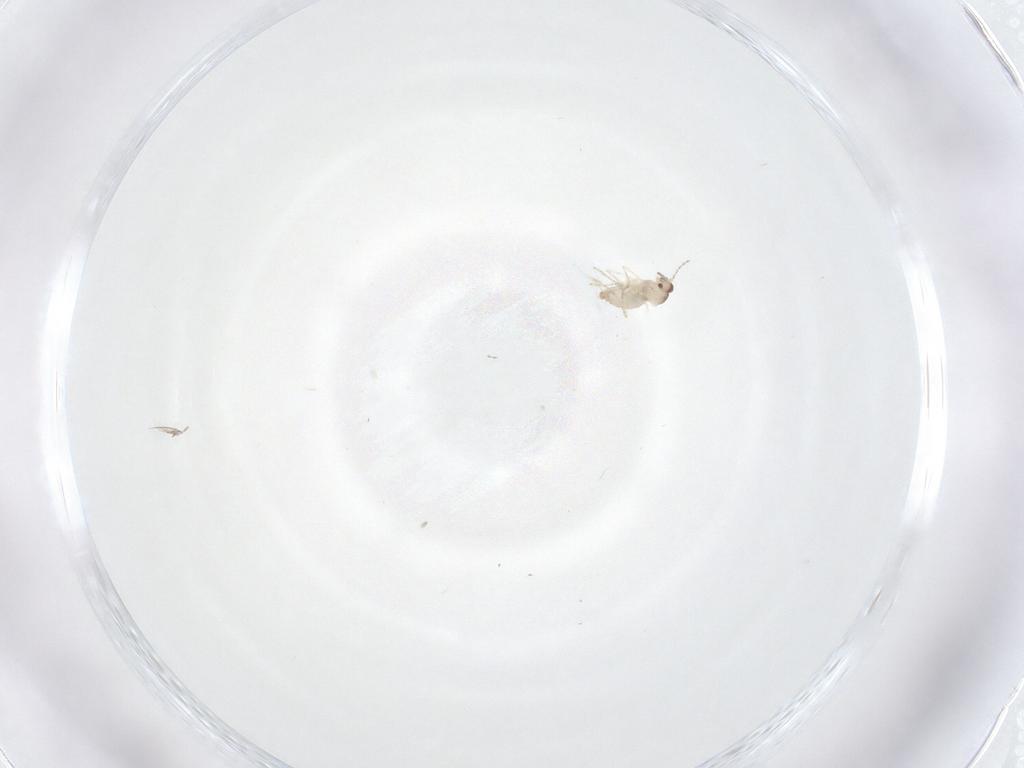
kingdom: Animalia
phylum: Arthropoda
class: Insecta
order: Diptera
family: Cecidomyiidae
